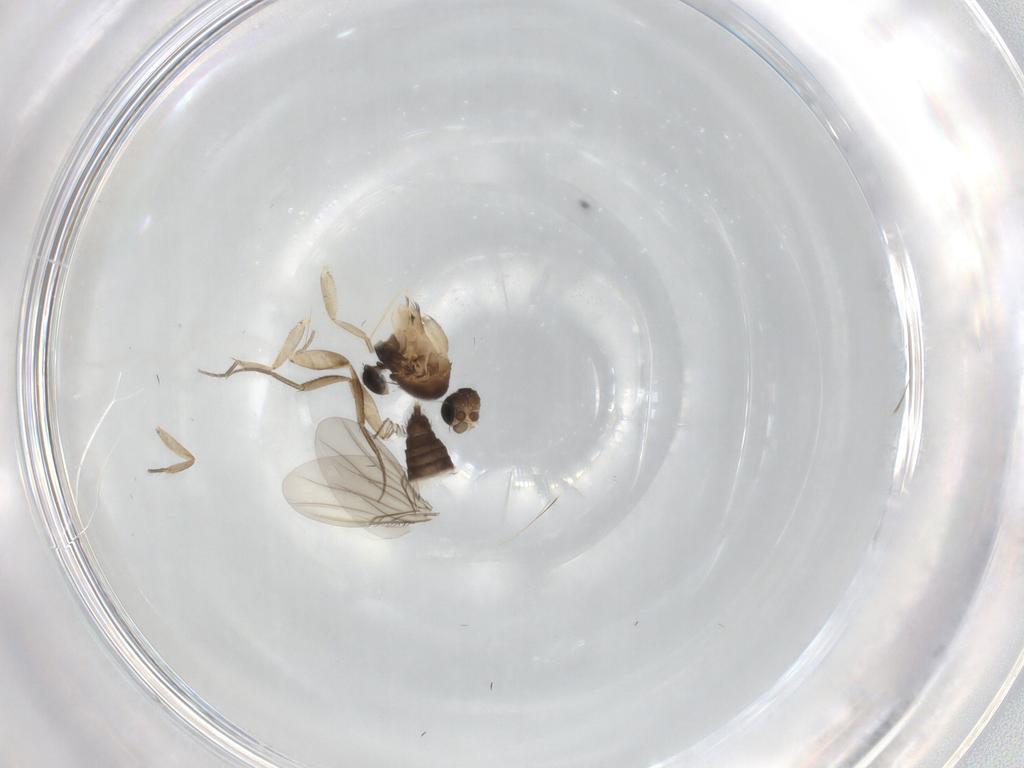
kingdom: Animalia
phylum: Arthropoda
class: Insecta
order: Diptera
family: Phoridae
